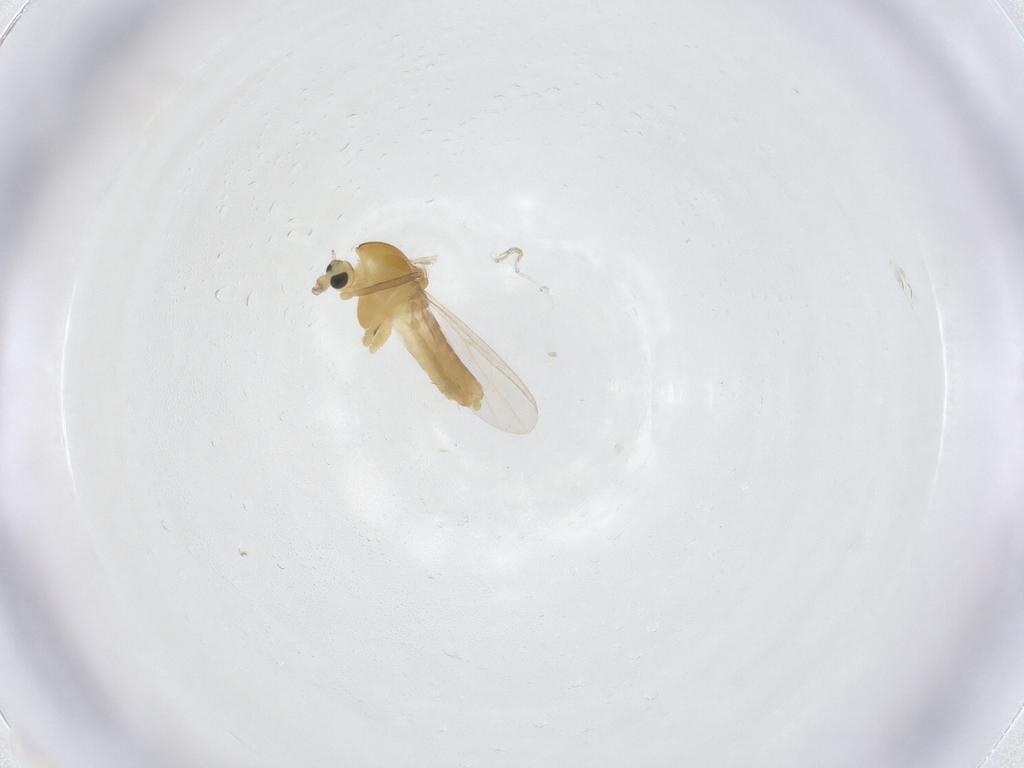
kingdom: Animalia
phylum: Arthropoda
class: Insecta
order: Diptera
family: Chironomidae
